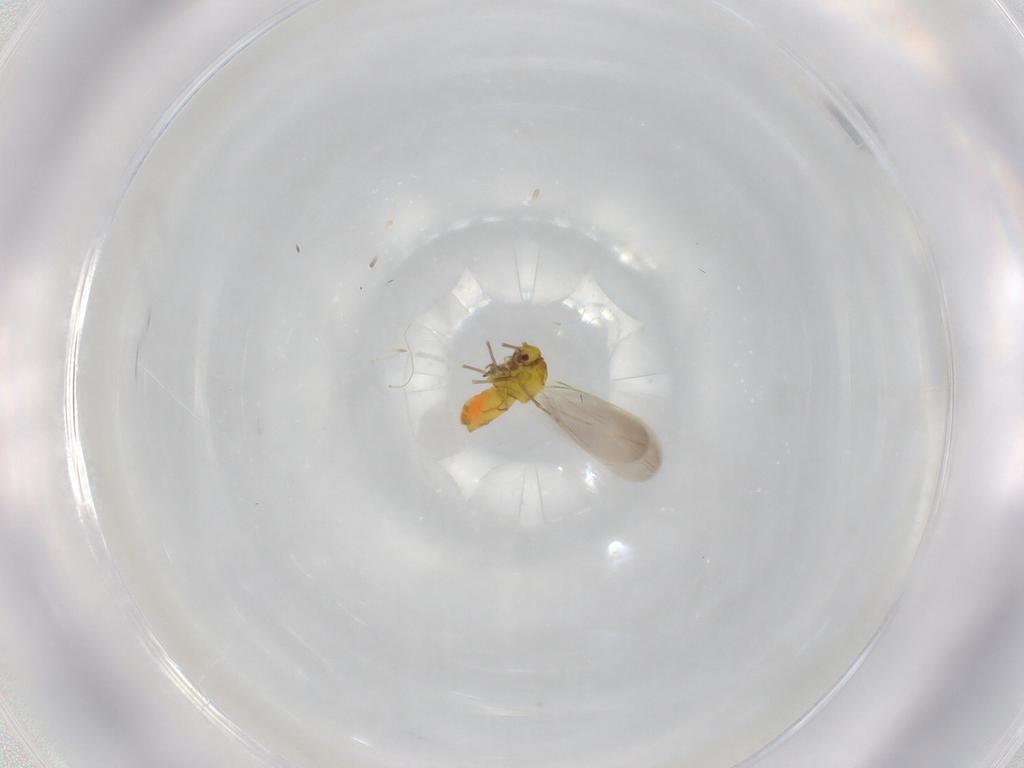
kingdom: Animalia
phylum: Arthropoda
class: Insecta
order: Hemiptera
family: Aleyrodidae
